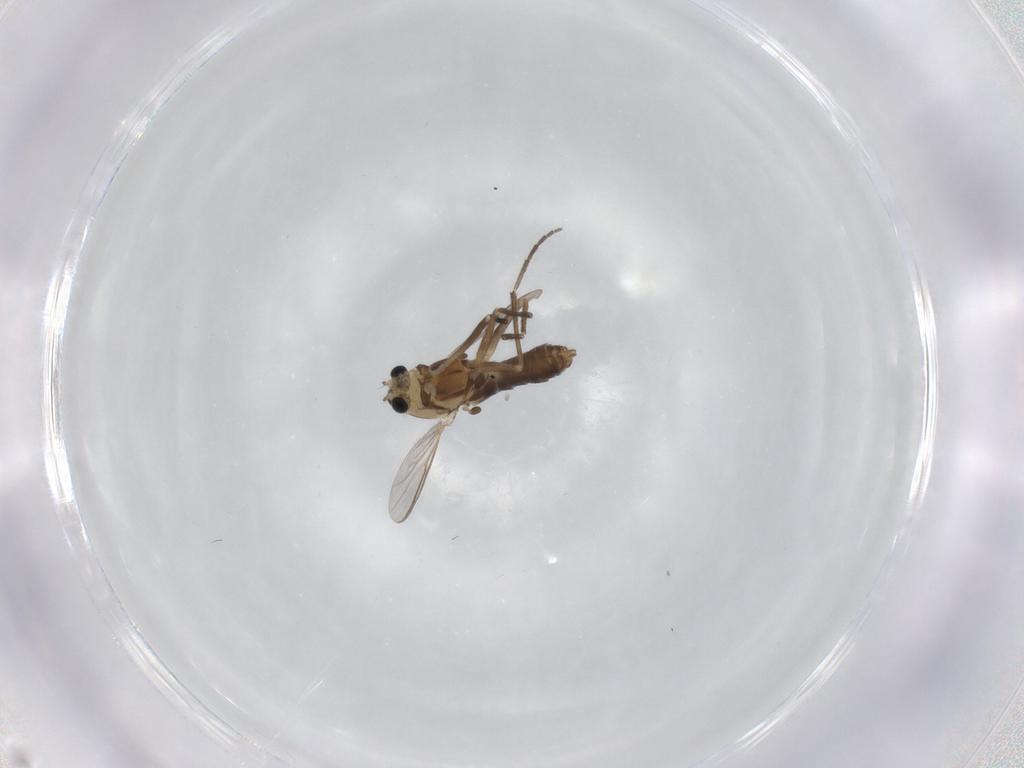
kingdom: Animalia
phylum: Arthropoda
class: Insecta
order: Diptera
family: Chironomidae
